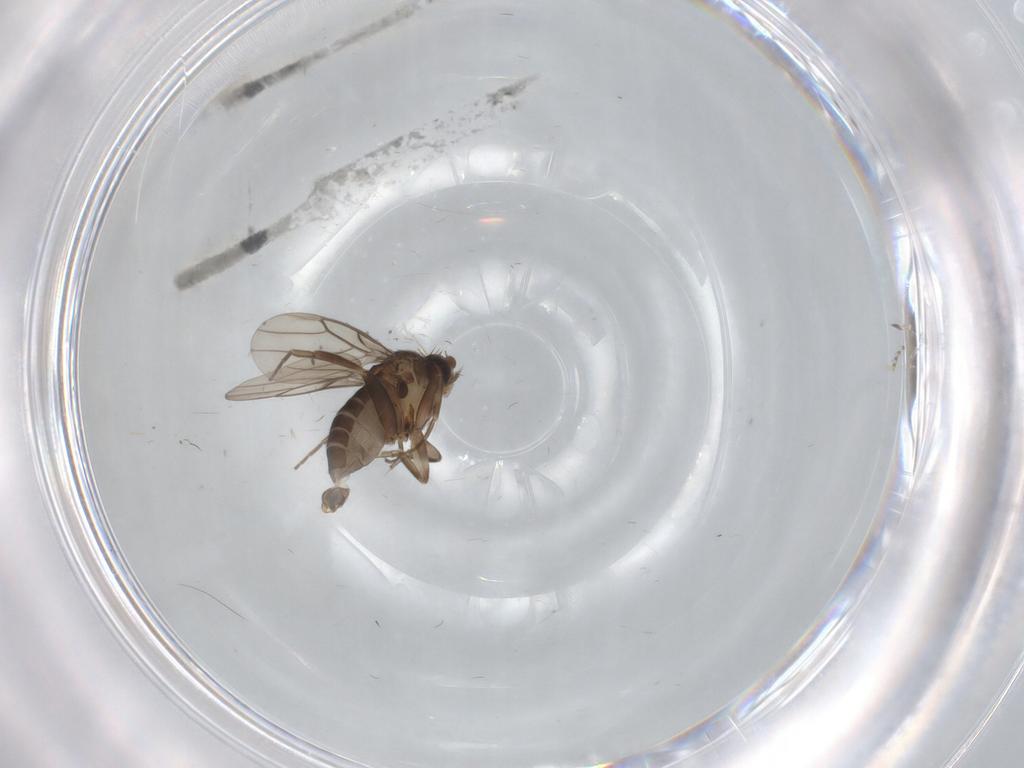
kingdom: Animalia
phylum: Arthropoda
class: Insecta
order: Diptera
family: Phoridae
